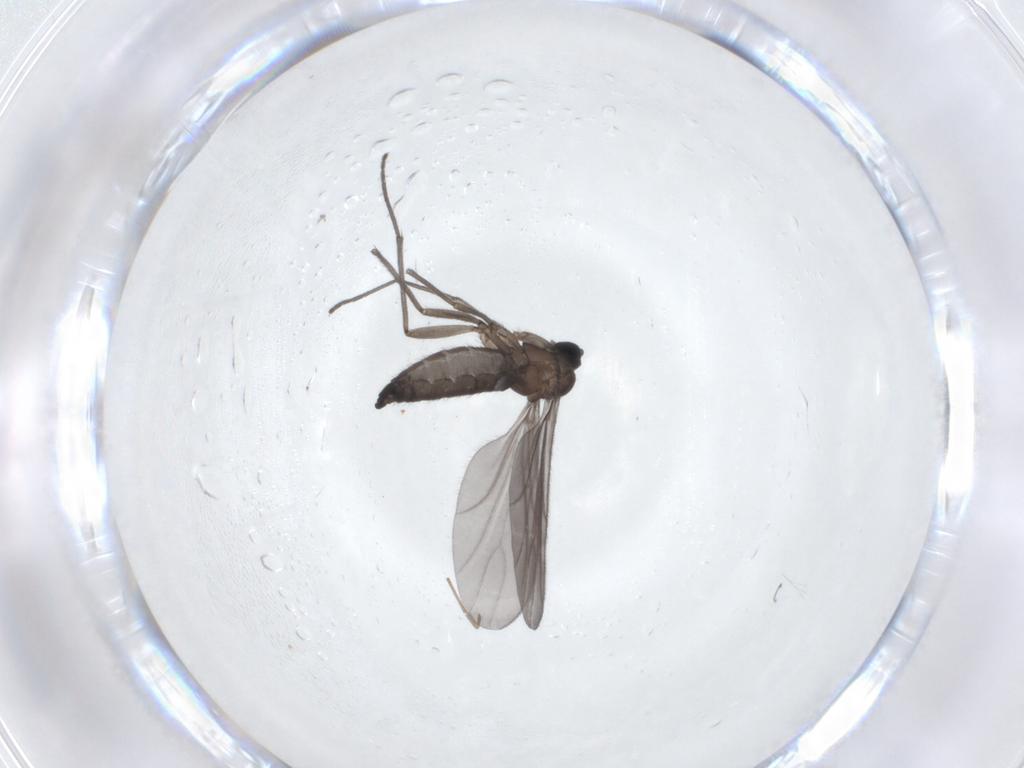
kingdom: Animalia
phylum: Arthropoda
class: Insecta
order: Diptera
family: Chironomidae
